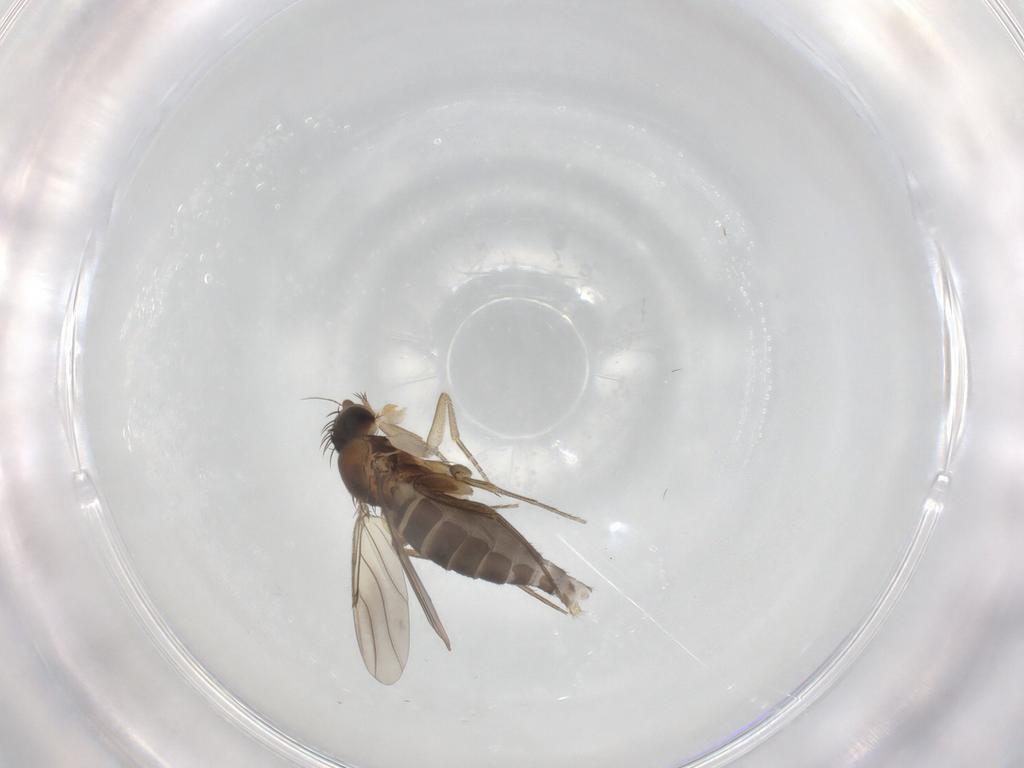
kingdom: Animalia
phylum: Arthropoda
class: Insecta
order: Diptera
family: Phoridae
